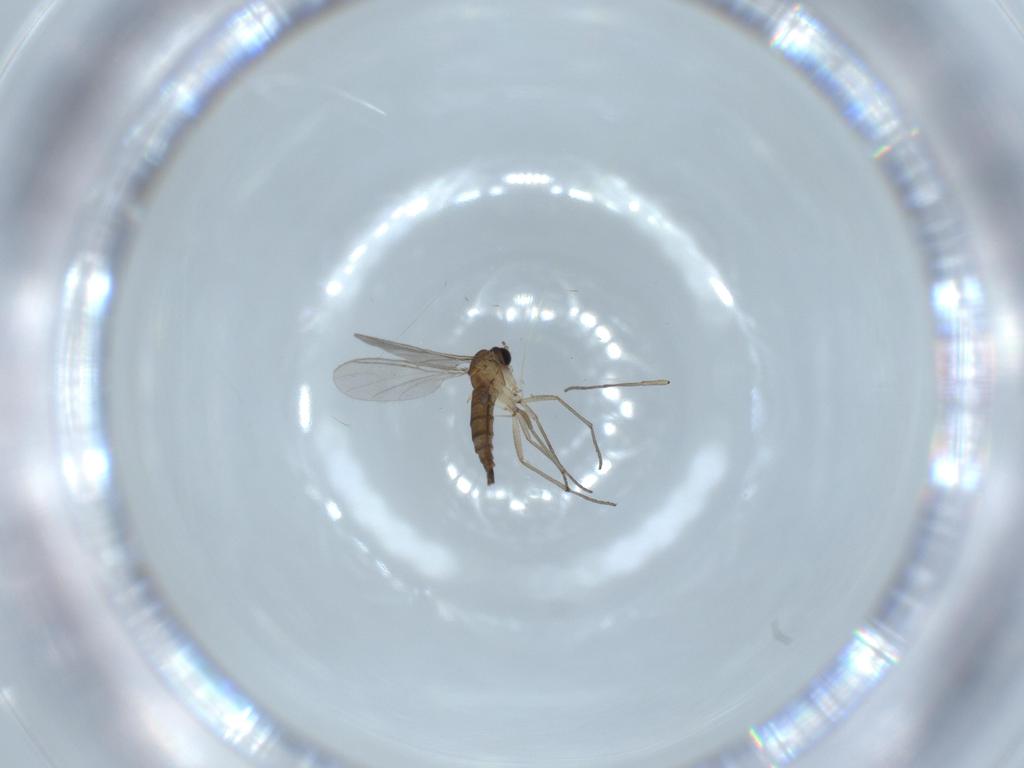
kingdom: Animalia
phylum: Arthropoda
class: Insecta
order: Diptera
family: Sciaridae
